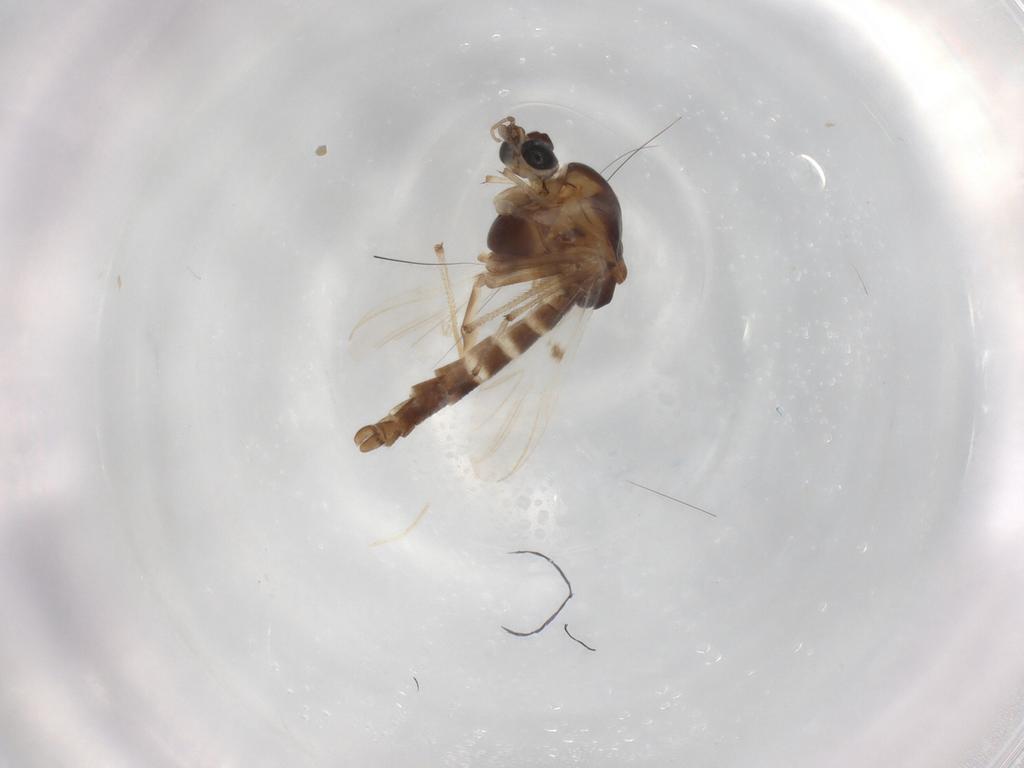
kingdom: Animalia
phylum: Arthropoda
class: Insecta
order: Diptera
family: Chironomidae
